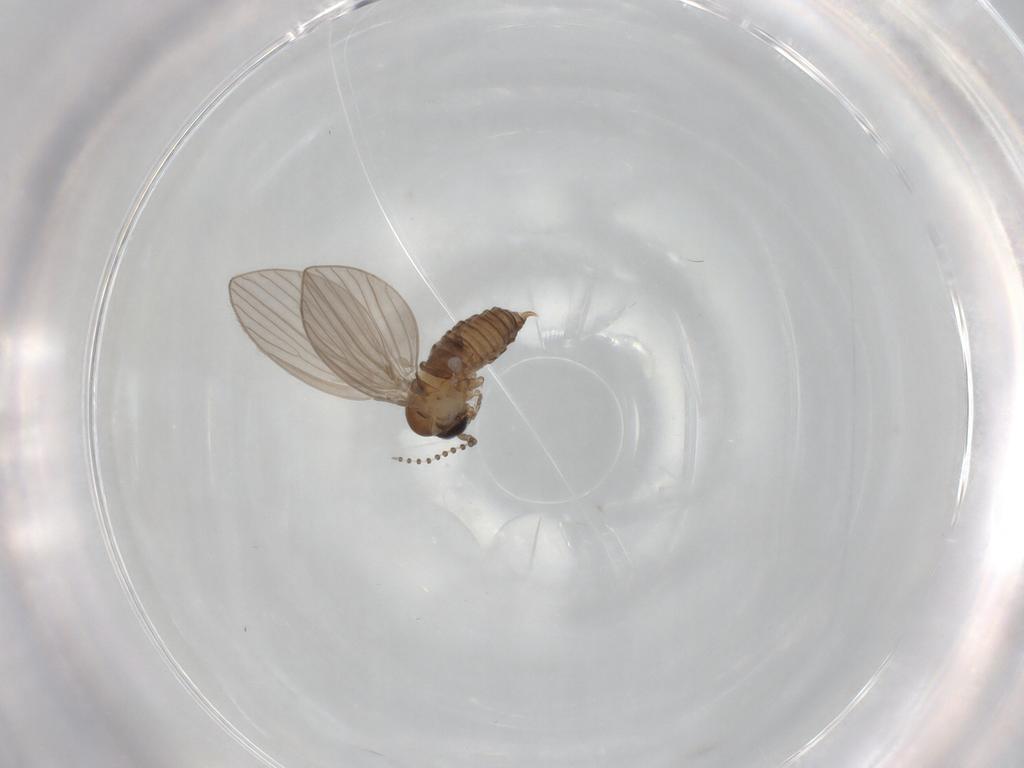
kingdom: Animalia
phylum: Arthropoda
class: Insecta
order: Diptera
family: Psychodidae
